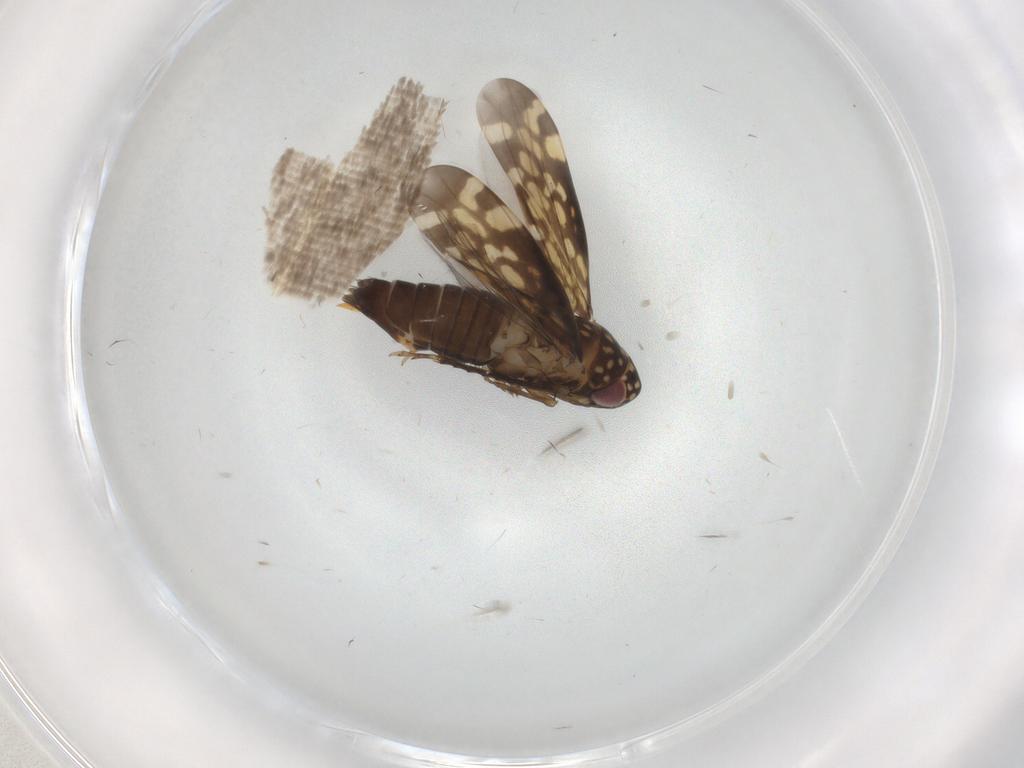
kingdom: Animalia
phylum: Arthropoda
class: Insecta
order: Hemiptera
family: Cicadellidae
